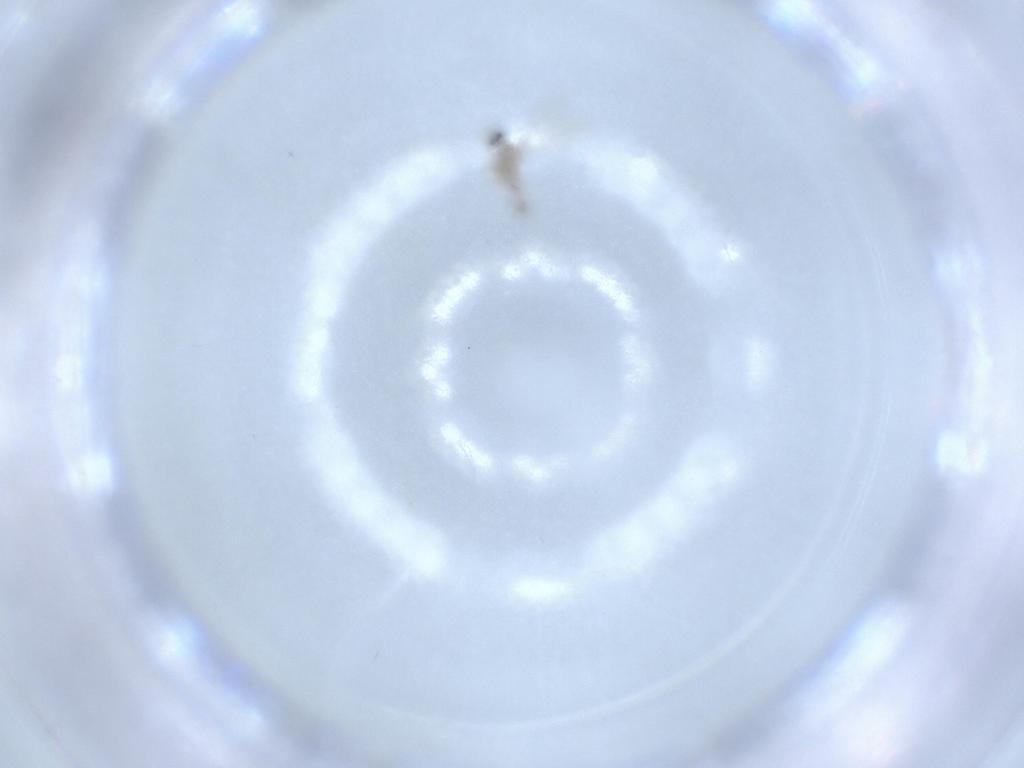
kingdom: Animalia
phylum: Arthropoda
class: Insecta
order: Diptera
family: Cecidomyiidae
